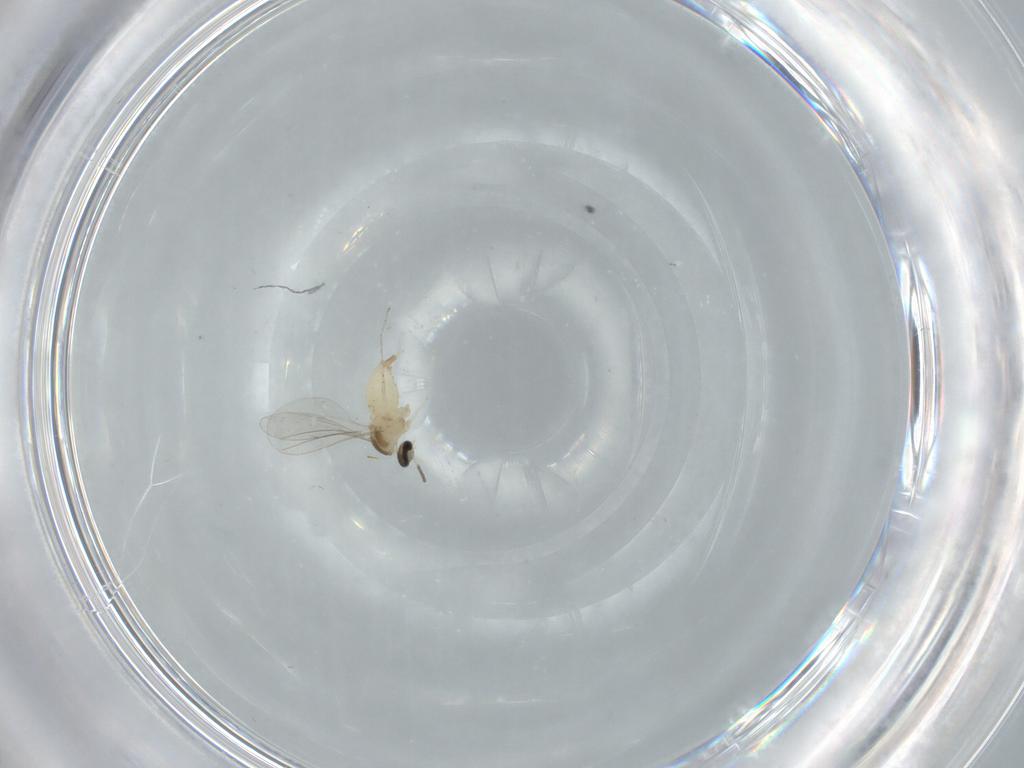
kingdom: Animalia
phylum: Arthropoda
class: Insecta
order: Diptera
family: Cecidomyiidae
